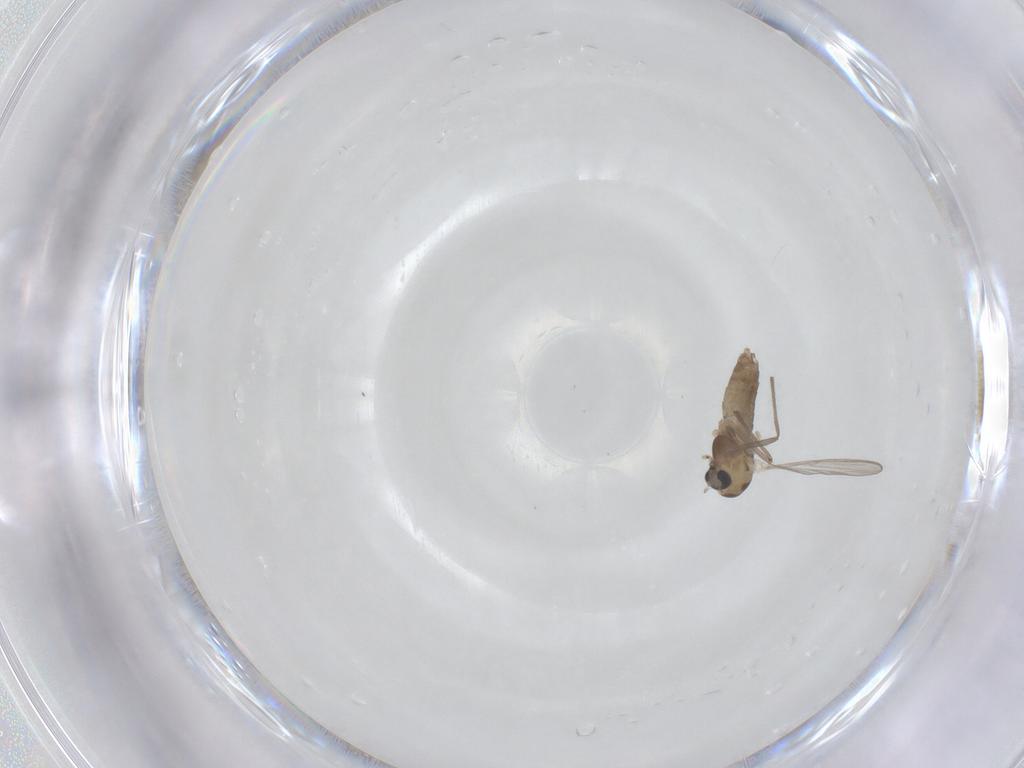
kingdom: Animalia
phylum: Arthropoda
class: Insecta
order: Diptera
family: Chironomidae
